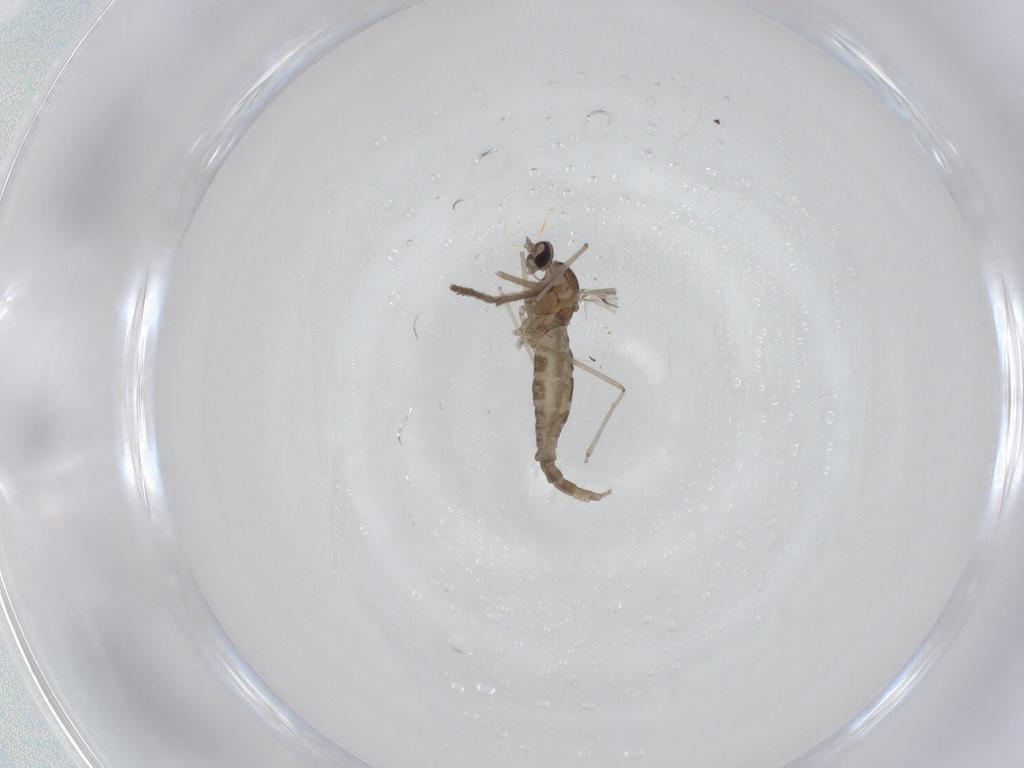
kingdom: Animalia
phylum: Arthropoda
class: Insecta
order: Diptera
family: Cecidomyiidae
